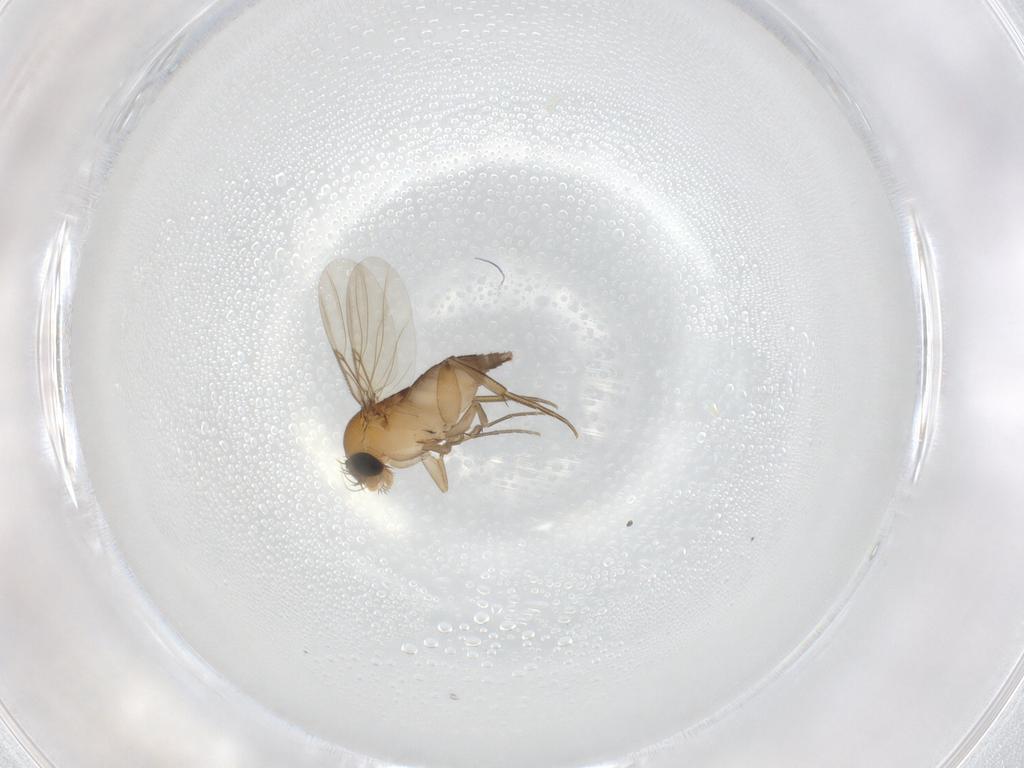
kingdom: Animalia
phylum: Arthropoda
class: Insecta
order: Diptera
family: Phoridae
